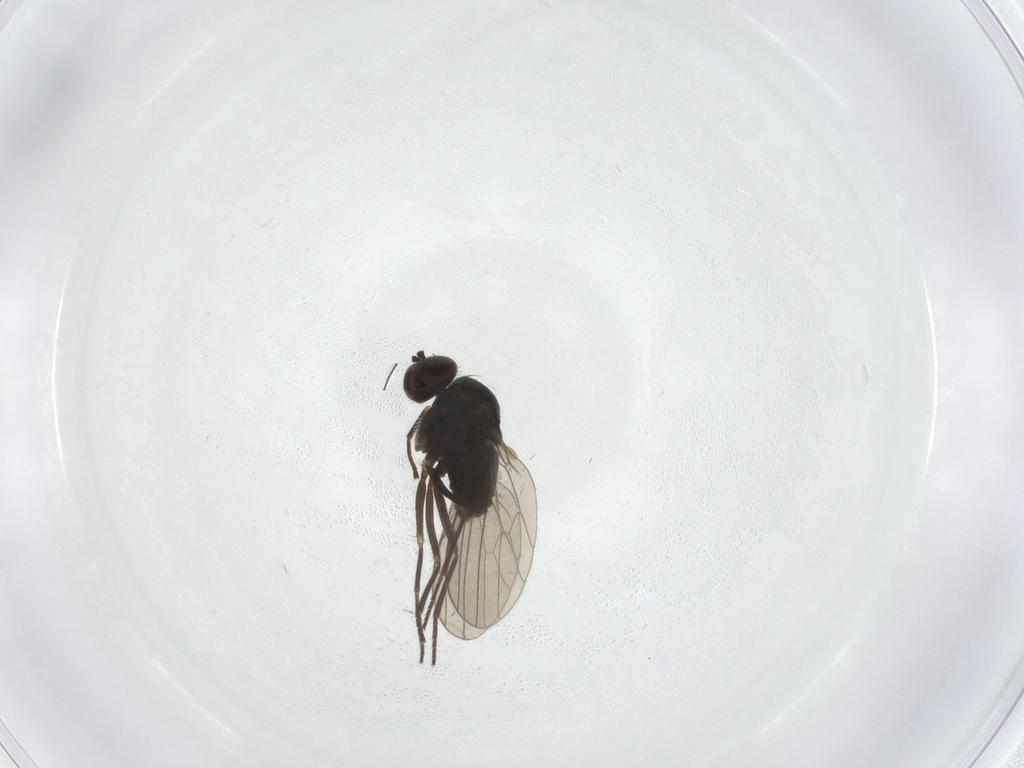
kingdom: Animalia
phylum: Arthropoda
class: Insecta
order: Diptera
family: Dolichopodidae
